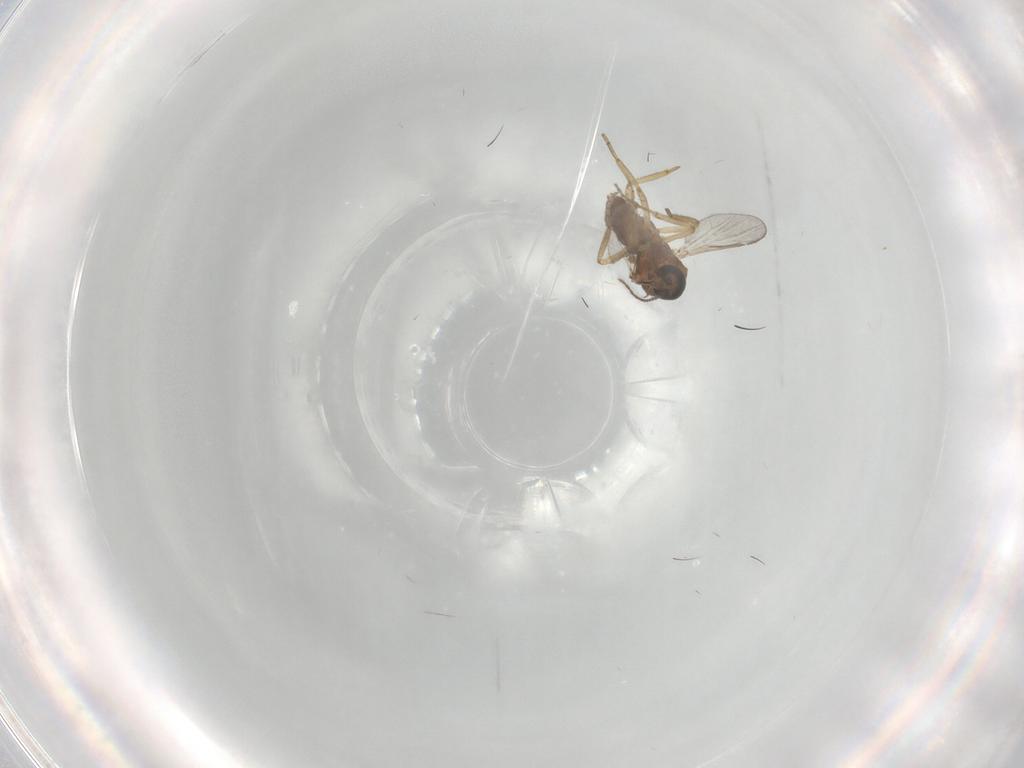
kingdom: Animalia
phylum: Arthropoda
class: Insecta
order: Diptera
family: Ceratopogonidae
